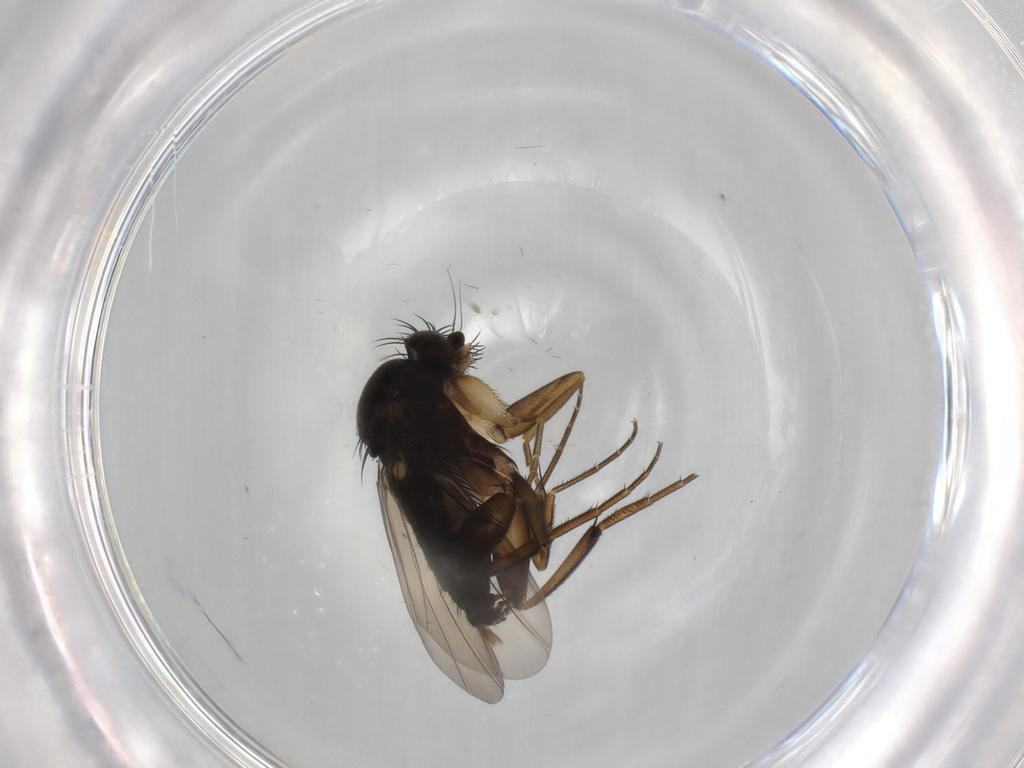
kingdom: Animalia
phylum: Arthropoda
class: Insecta
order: Diptera
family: Phoridae
